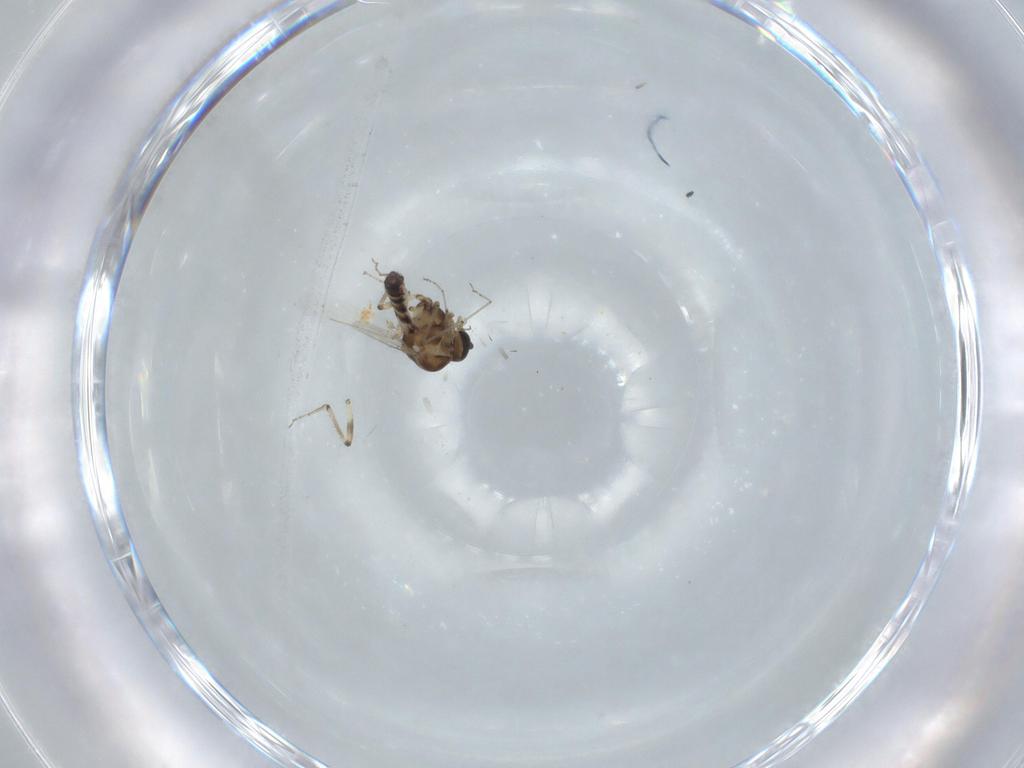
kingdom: Animalia
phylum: Arthropoda
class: Insecta
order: Diptera
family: Ceratopogonidae
